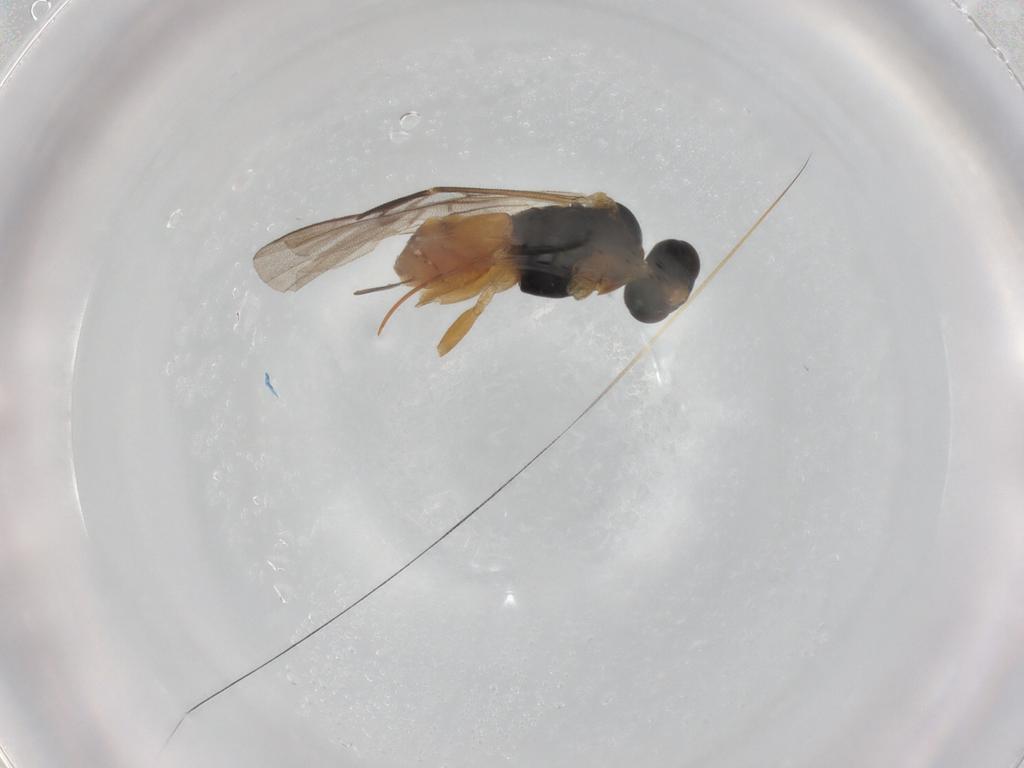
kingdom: Animalia
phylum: Arthropoda
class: Insecta
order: Hymenoptera
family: Braconidae
